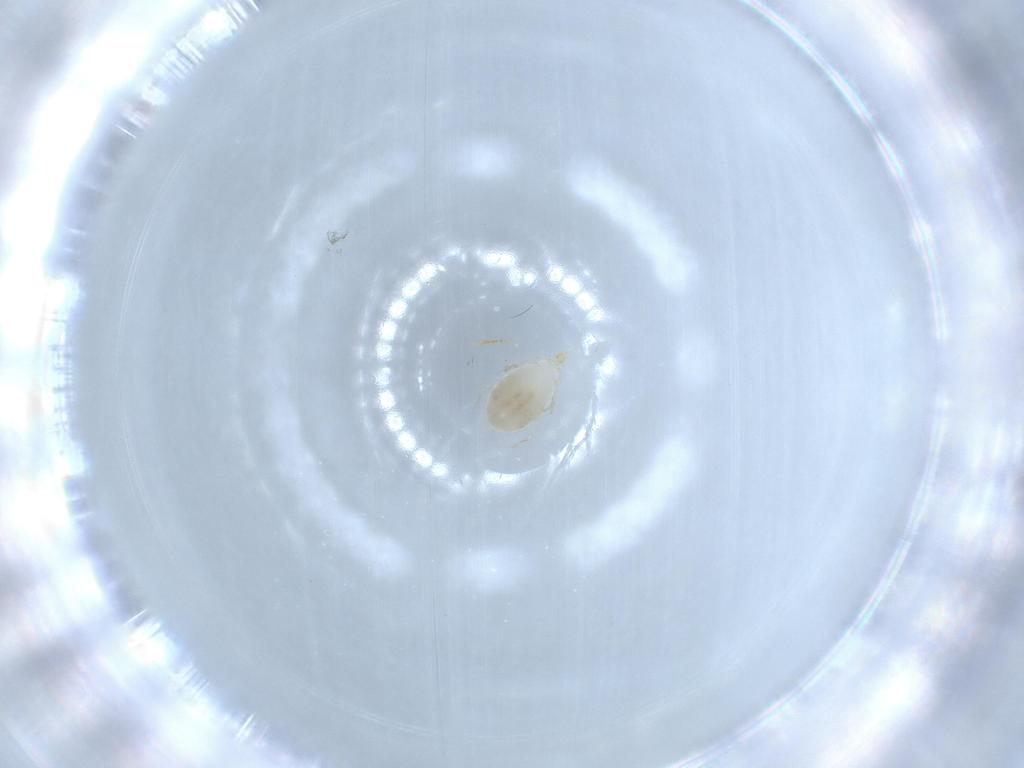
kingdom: Animalia
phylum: Arthropoda
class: Arachnida
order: Trombidiformes
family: Erythraeidae
